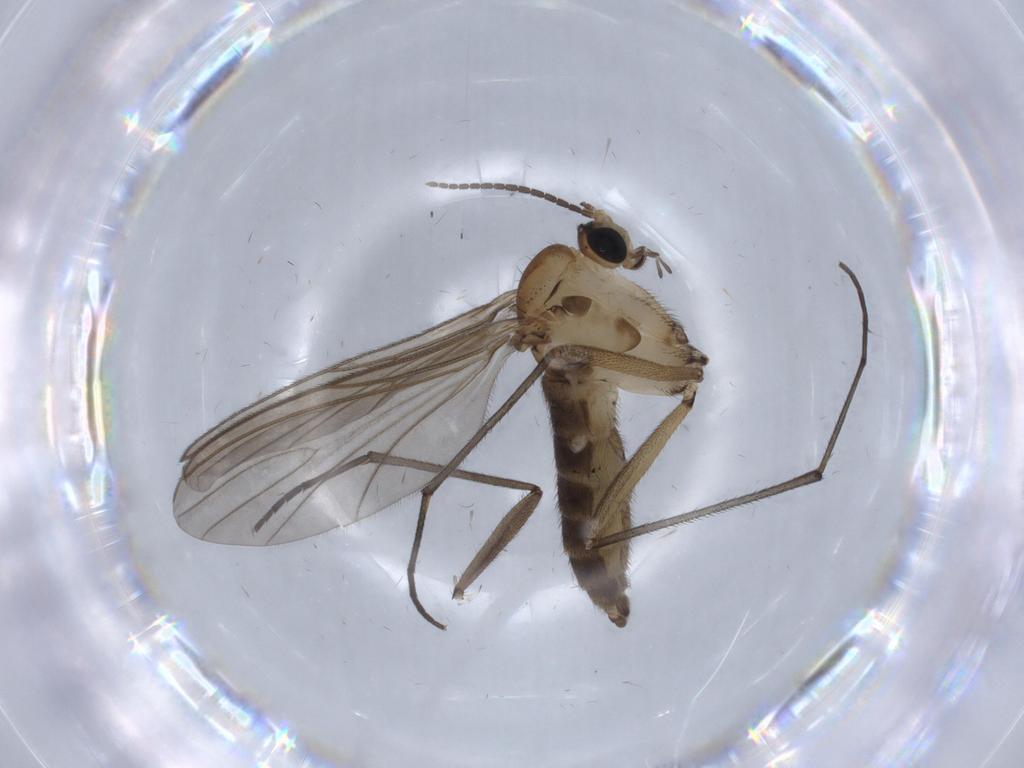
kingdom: Animalia
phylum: Arthropoda
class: Insecta
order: Diptera
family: Sciaridae
